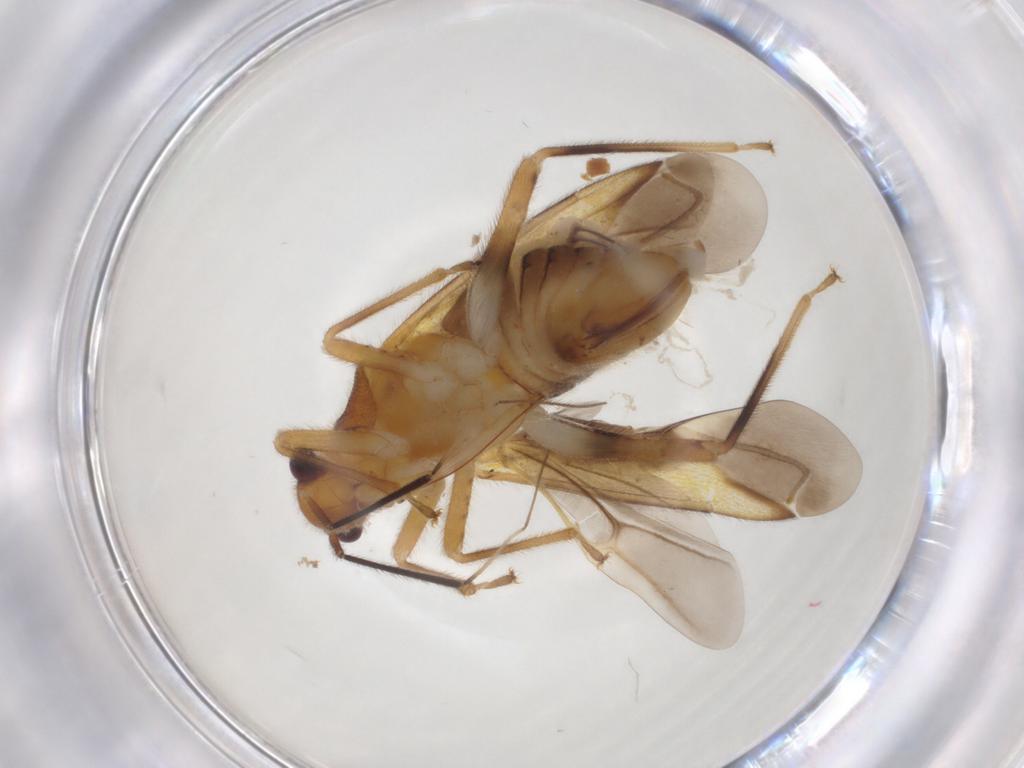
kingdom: Animalia
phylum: Arthropoda
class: Insecta
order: Hemiptera
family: Miridae
